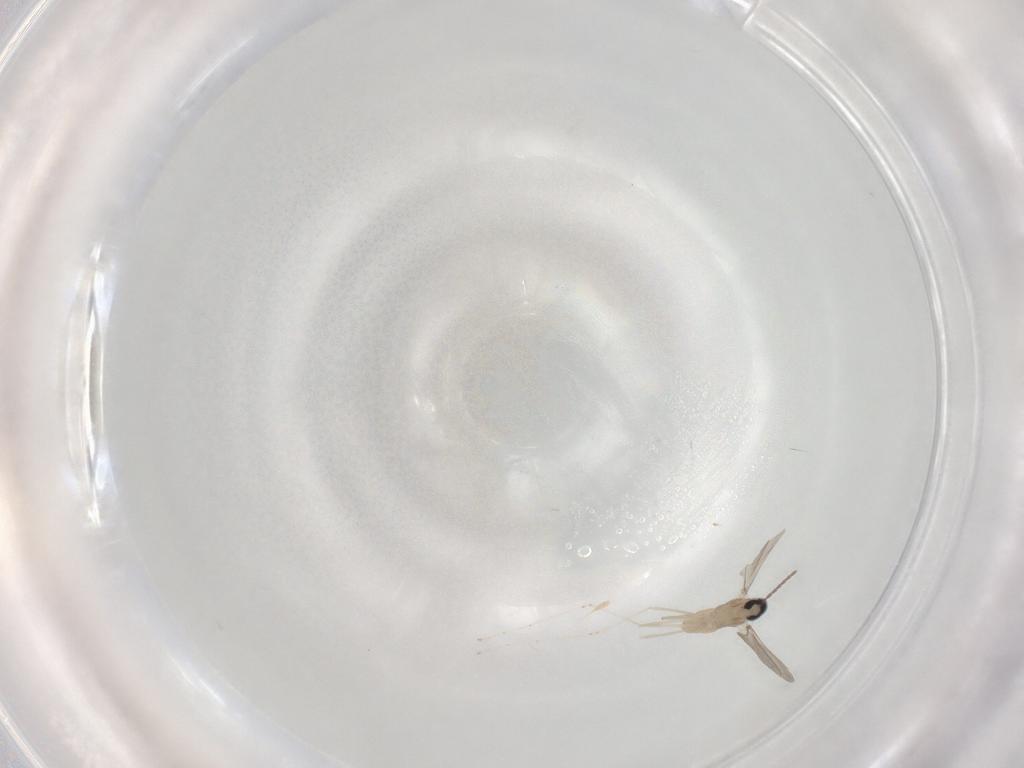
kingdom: Animalia
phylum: Arthropoda
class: Insecta
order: Diptera
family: Cecidomyiidae
